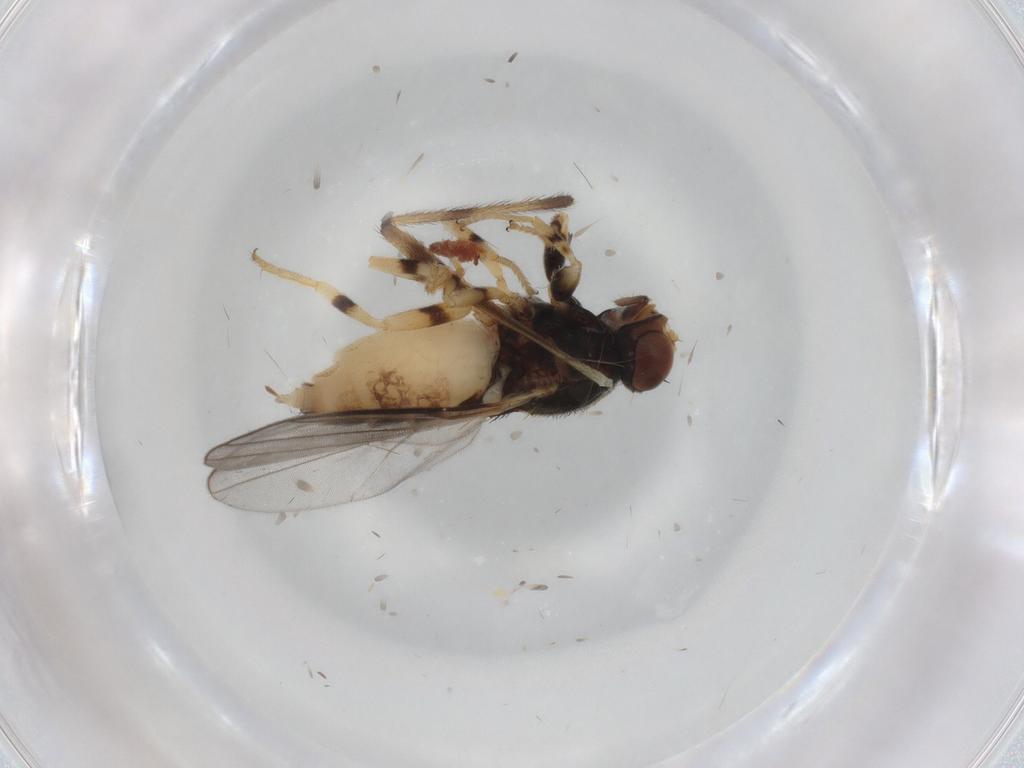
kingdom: Animalia
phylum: Arthropoda
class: Insecta
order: Diptera
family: Chloropidae
